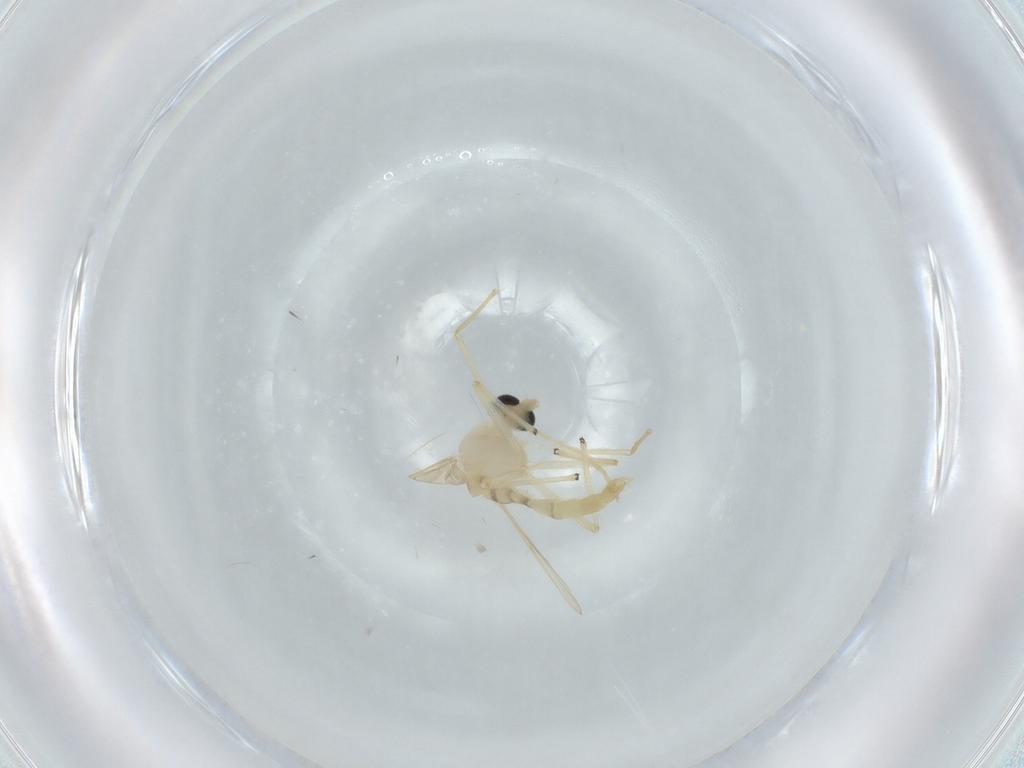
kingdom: Animalia
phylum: Arthropoda
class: Insecta
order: Diptera
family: Chironomidae
